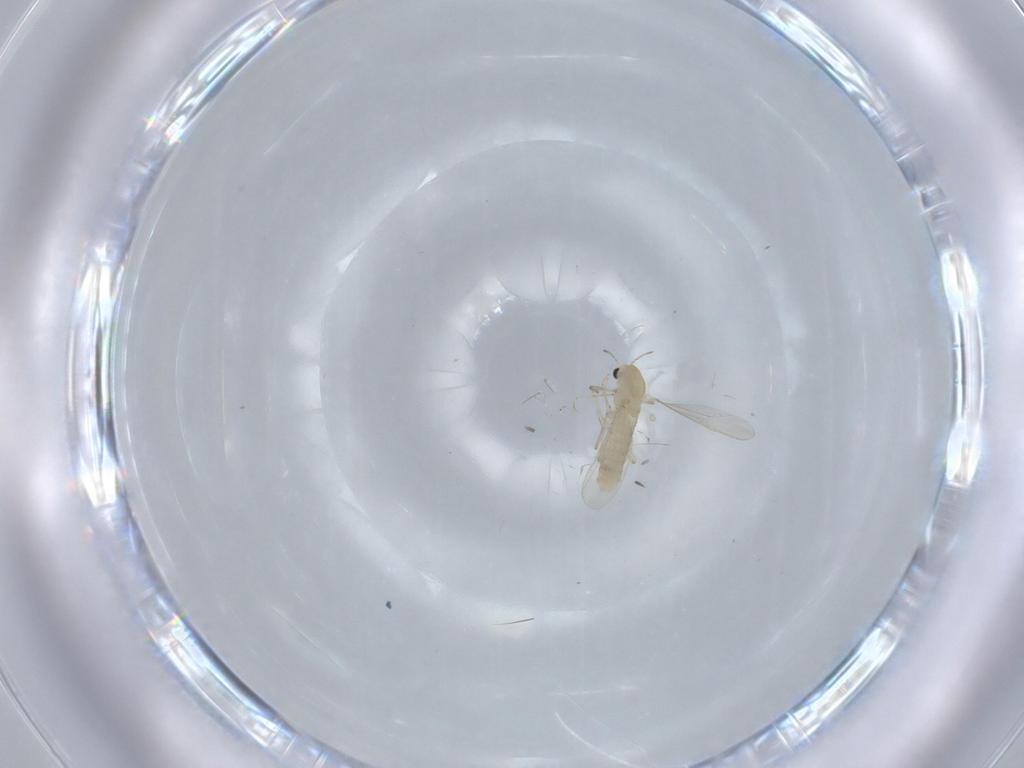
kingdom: Animalia
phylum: Arthropoda
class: Insecta
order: Diptera
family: Chironomidae
